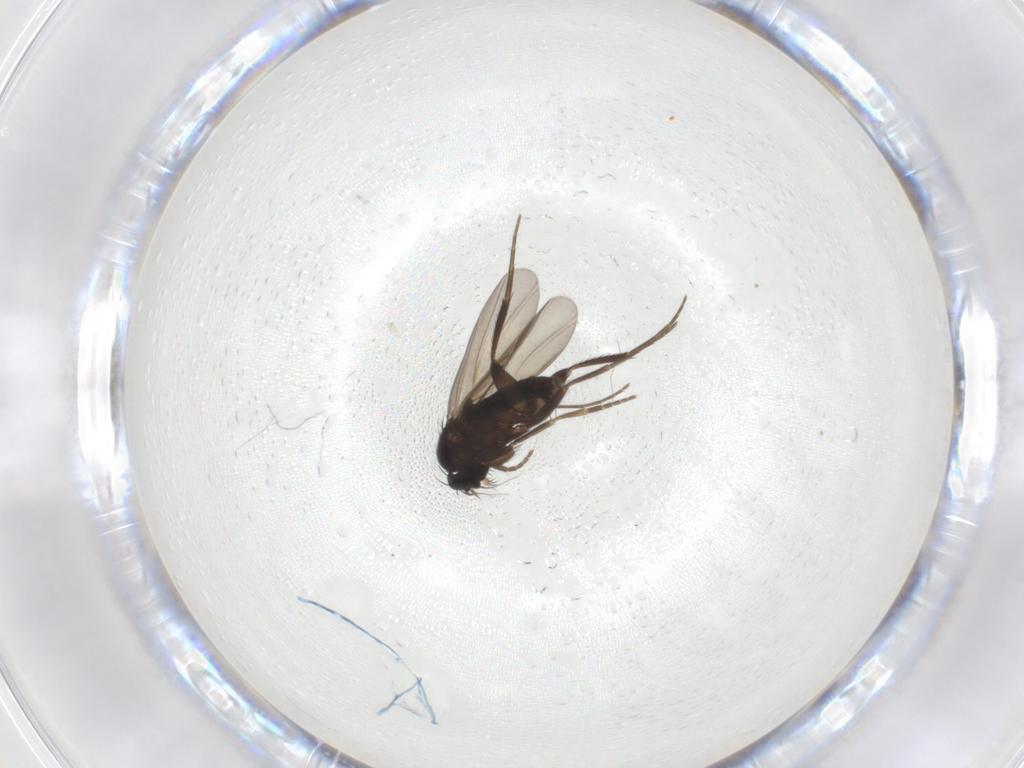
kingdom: Animalia
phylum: Arthropoda
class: Insecta
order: Diptera
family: Phoridae
